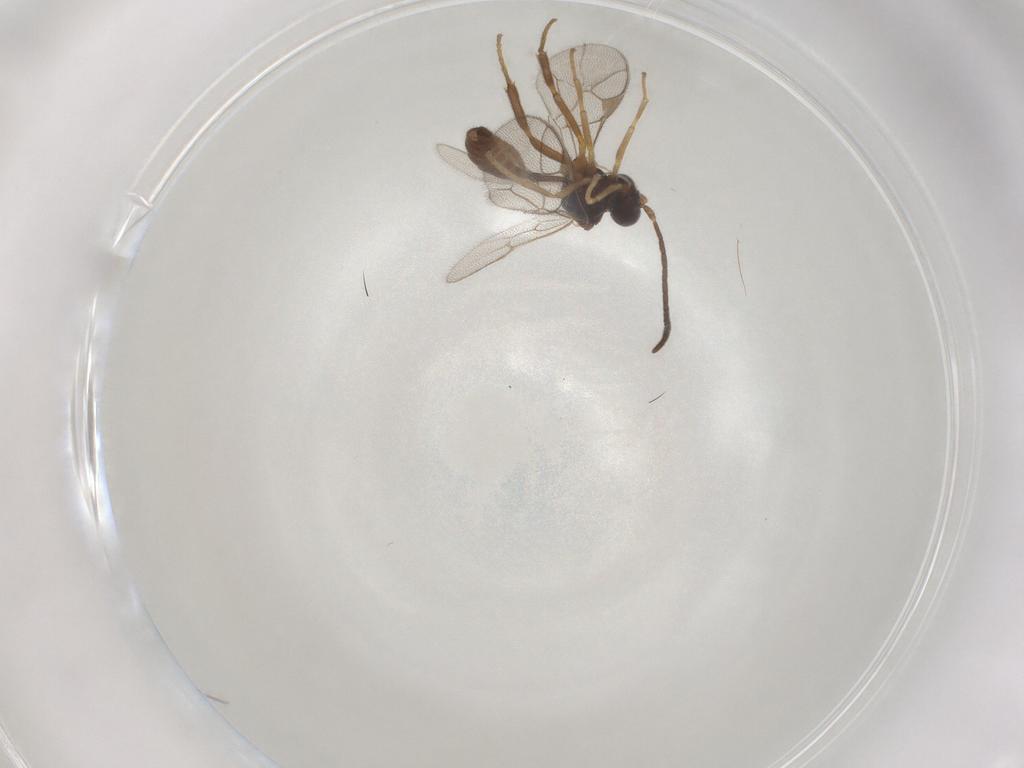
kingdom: Animalia
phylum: Arthropoda
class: Insecta
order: Hymenoptera
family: Ichneumonidae
